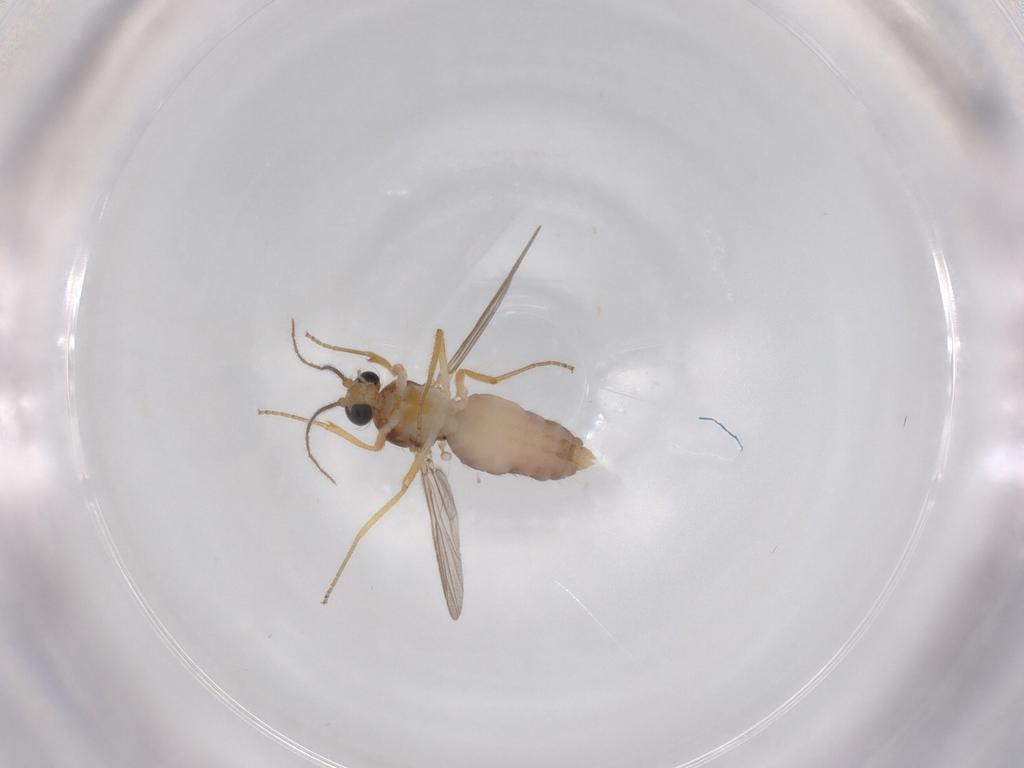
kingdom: Animalia
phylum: Arthropoda
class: Insecta
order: Diptera
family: Ceratopogonidae
